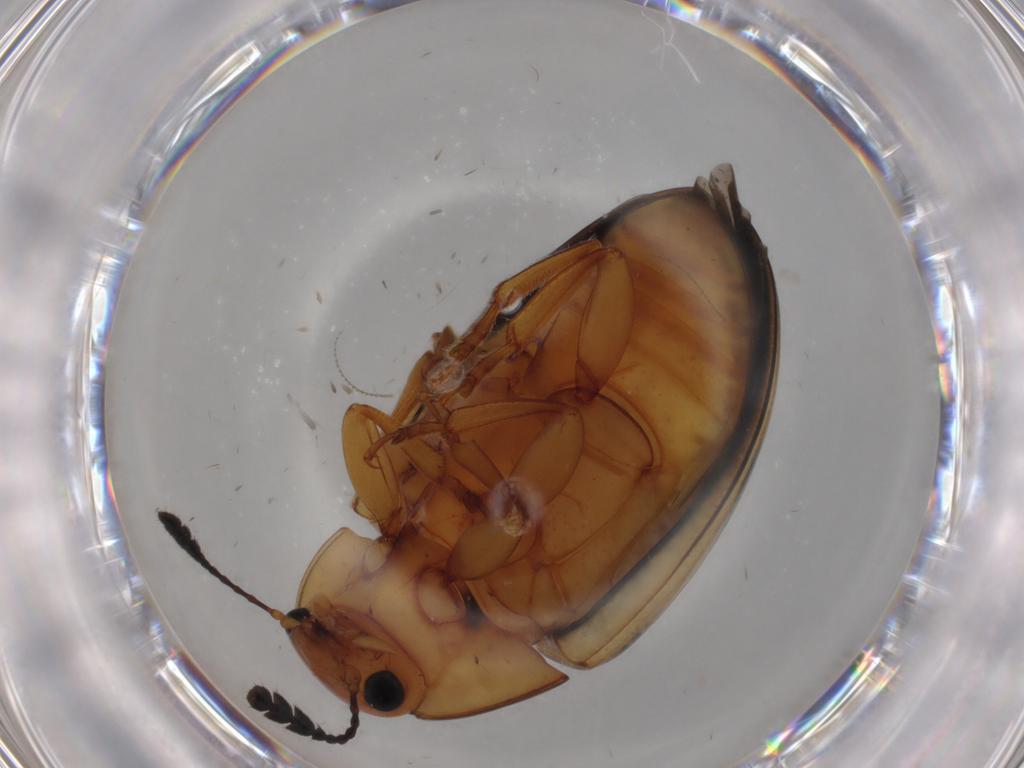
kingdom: Animalia
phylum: Arthropoda
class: Insecta
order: Coleoptera
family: Erotylidae
